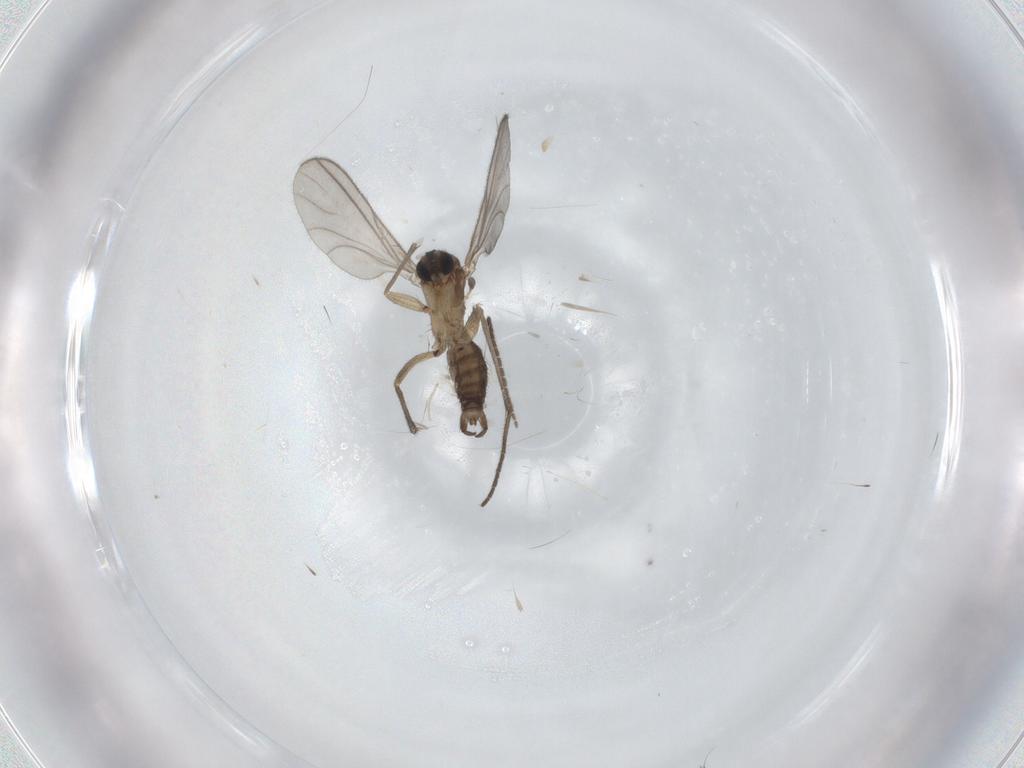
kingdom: Animalia
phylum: Arthropoda
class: Insecta
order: Diptera
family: Sciaridae
